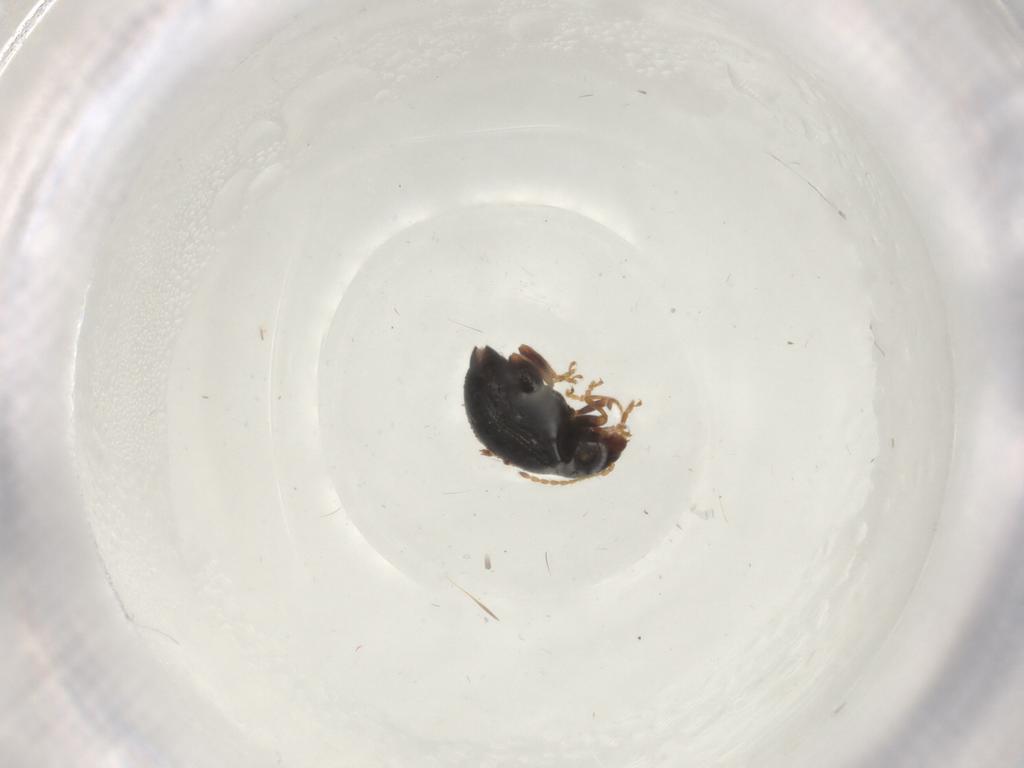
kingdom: Animalia
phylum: Arthropoda
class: Insecta
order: Coleoptera
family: Chrysomelidae
